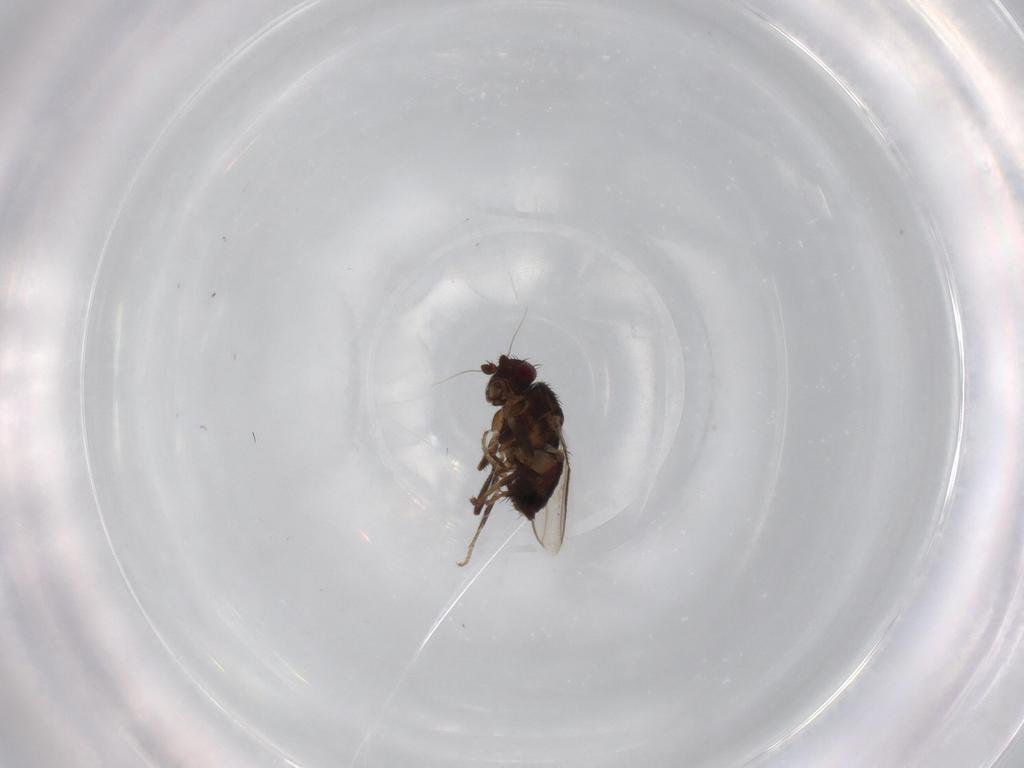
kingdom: Animalia
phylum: Arthropoda
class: Insecta
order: Diptera
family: Sphaeroceridae
